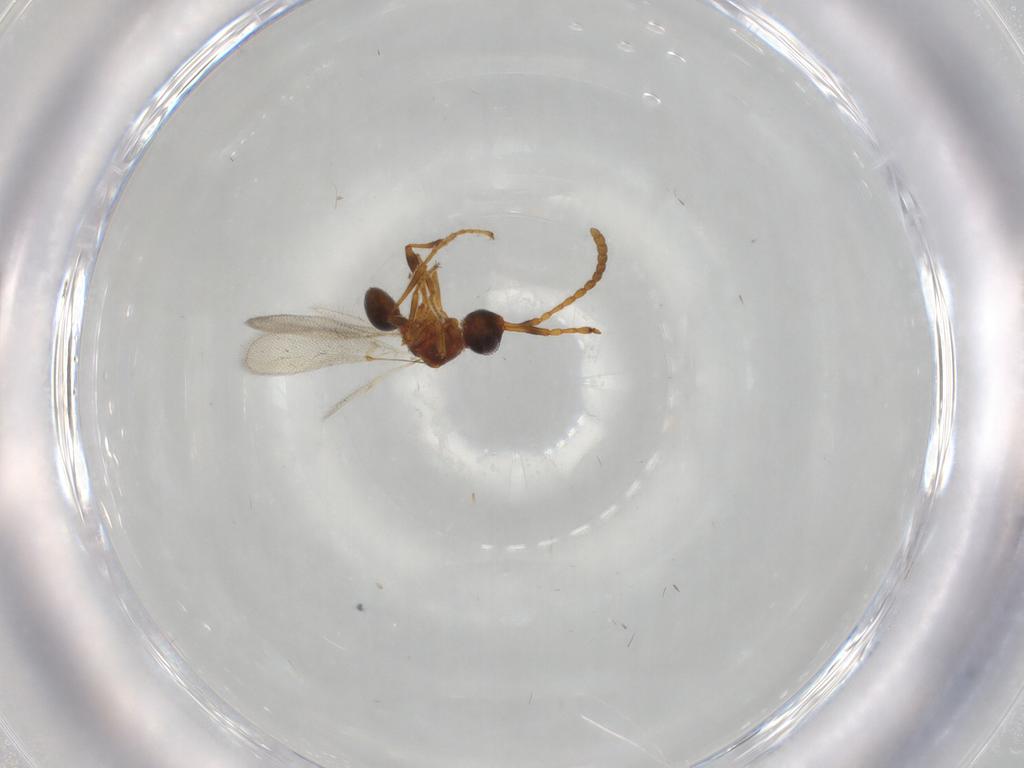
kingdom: Animalia
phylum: Arthropoda
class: Insecta
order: Hymenoptera
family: Diapriidae
